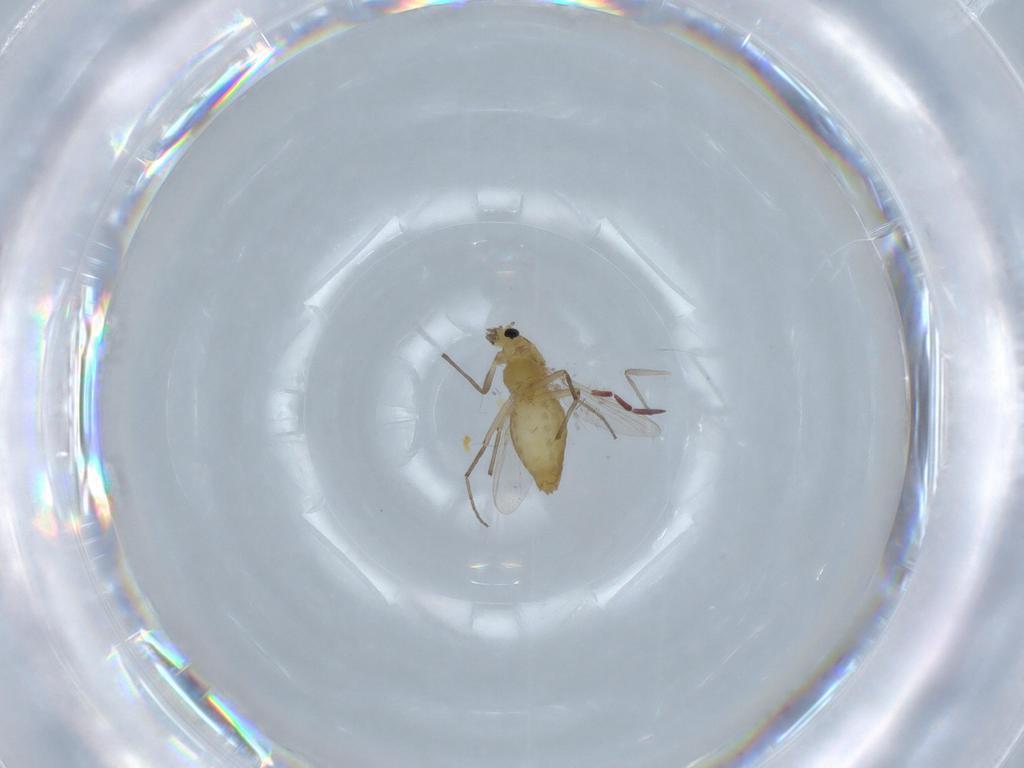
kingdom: Animalia
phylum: Arthropoda
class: Insecta
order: Diptera
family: Chironomidae
